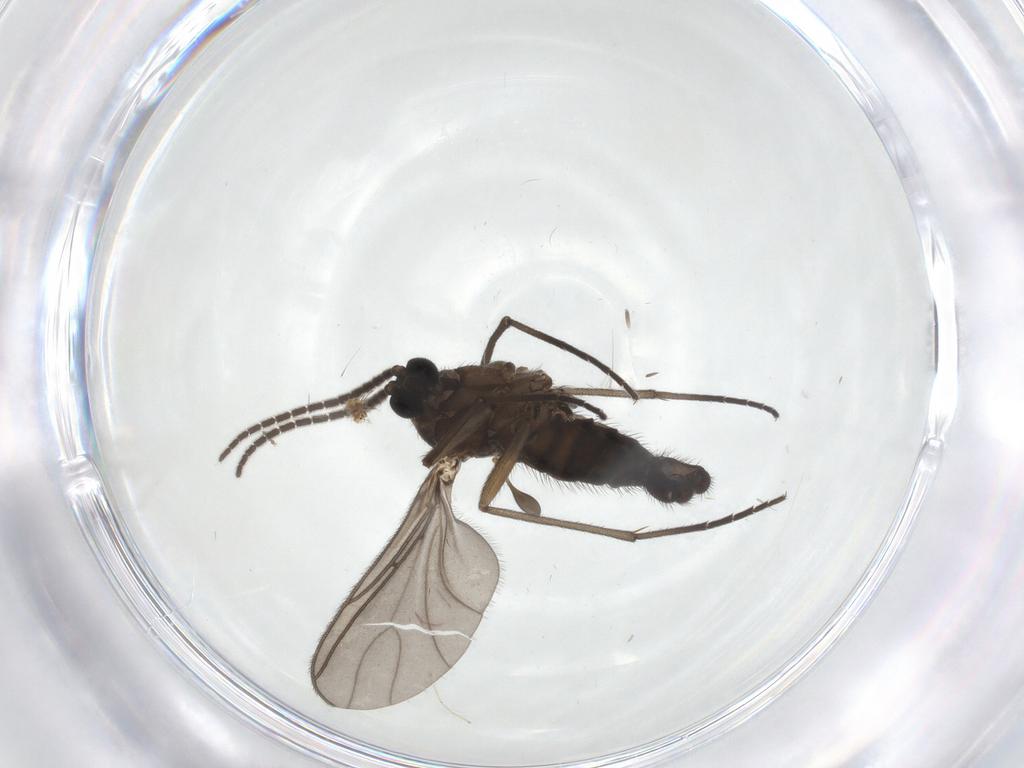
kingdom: Animalia
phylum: Arthropoda
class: Insecta
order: Diptera
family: Sciaridae
